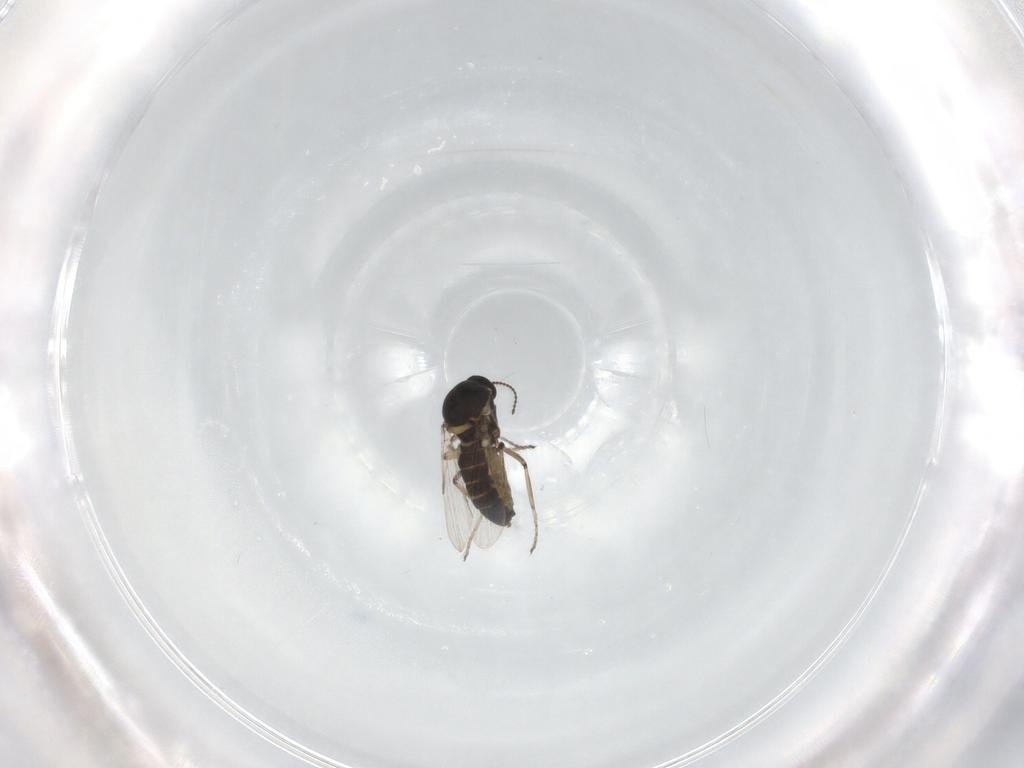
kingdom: Animalia
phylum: Arthropoda
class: Insecta
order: Diptera
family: Ceratopogonidae
